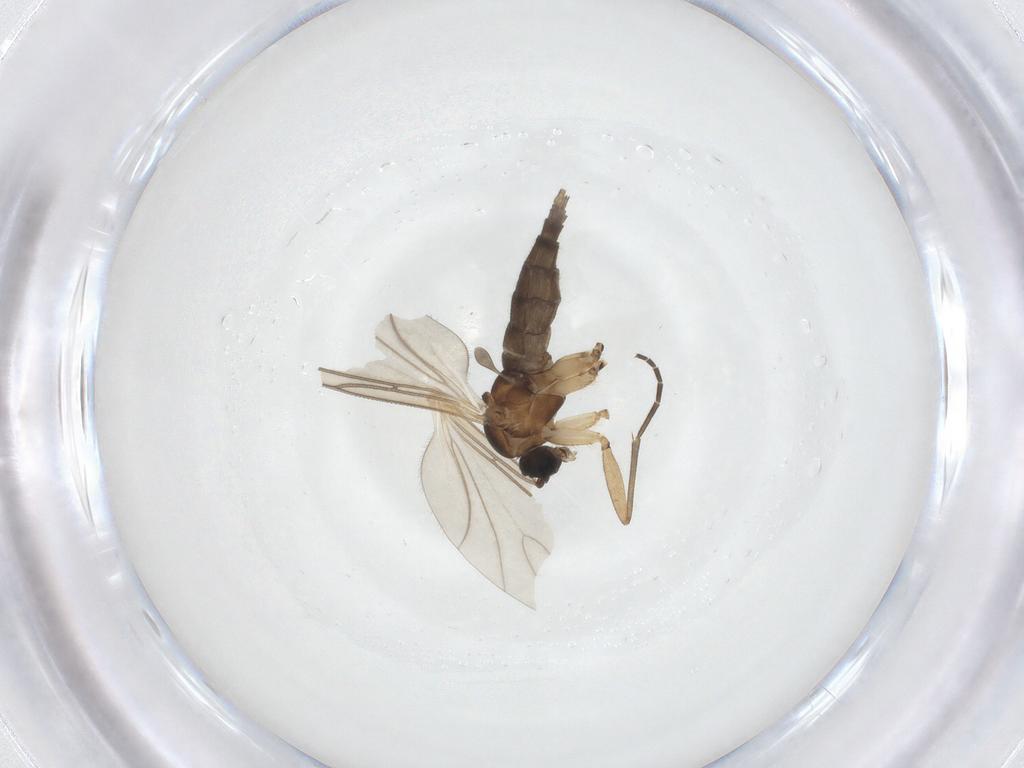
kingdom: Animalia
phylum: Arthropoda
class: Insecta
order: Diptera
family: Sciaridae
